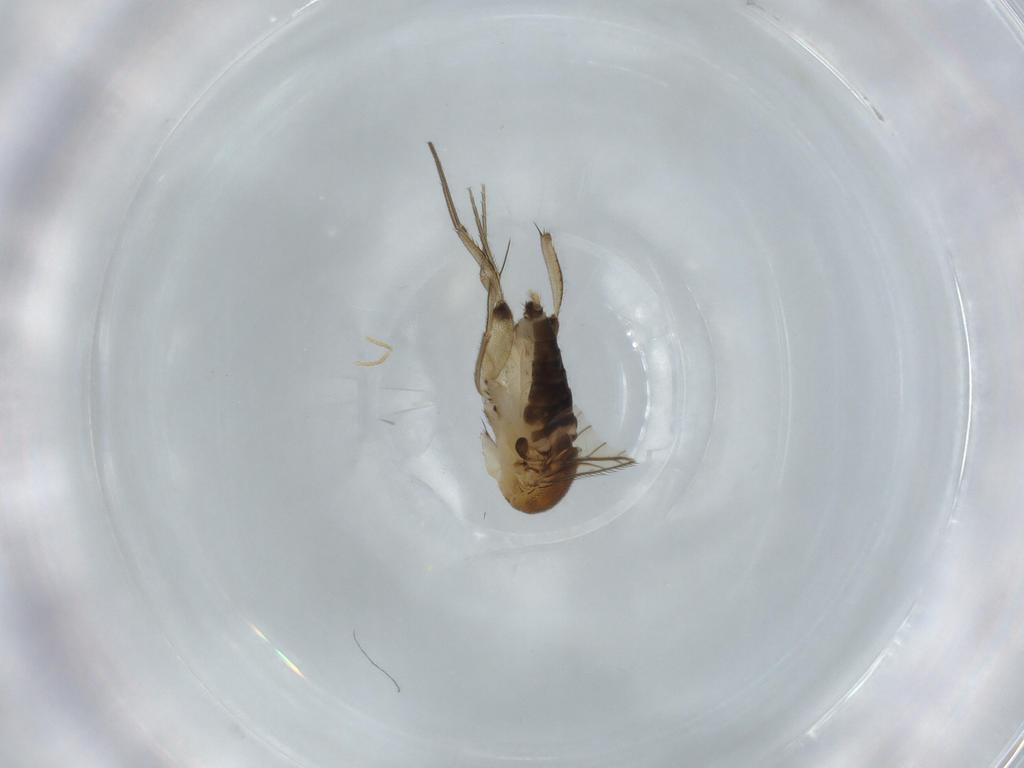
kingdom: Animalia
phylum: Arthropoda
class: Insecta
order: Diptera
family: Phoridae
